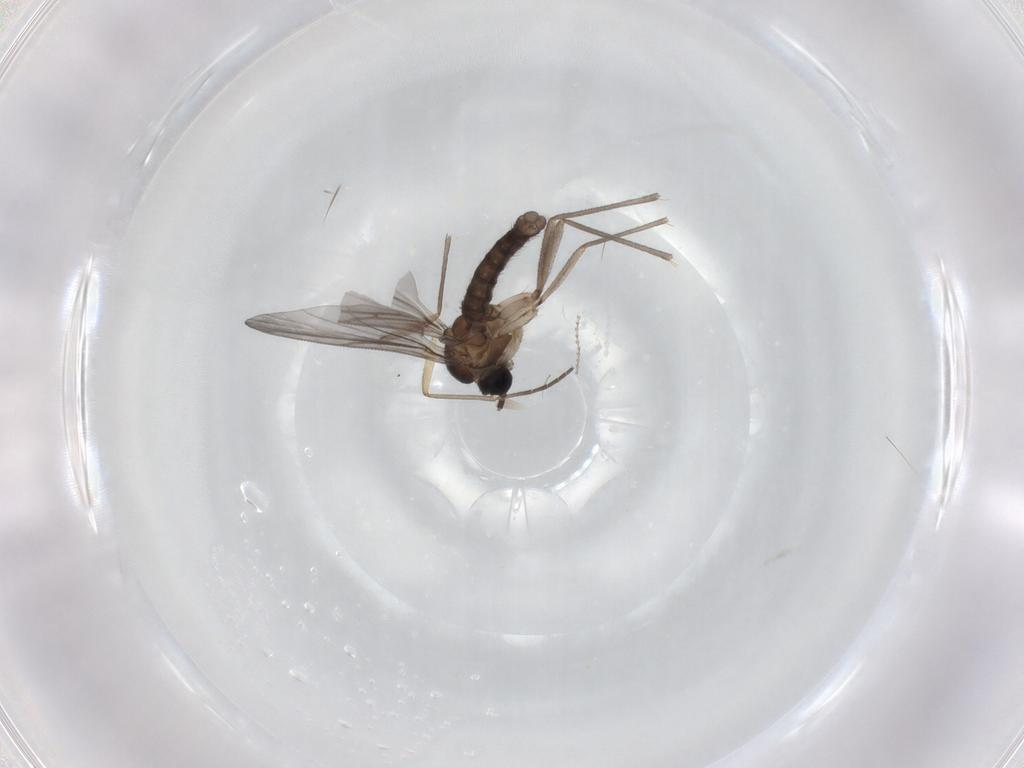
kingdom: Animalia
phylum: Arthropoda
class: Insecta
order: Diptera
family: Sciaridae
